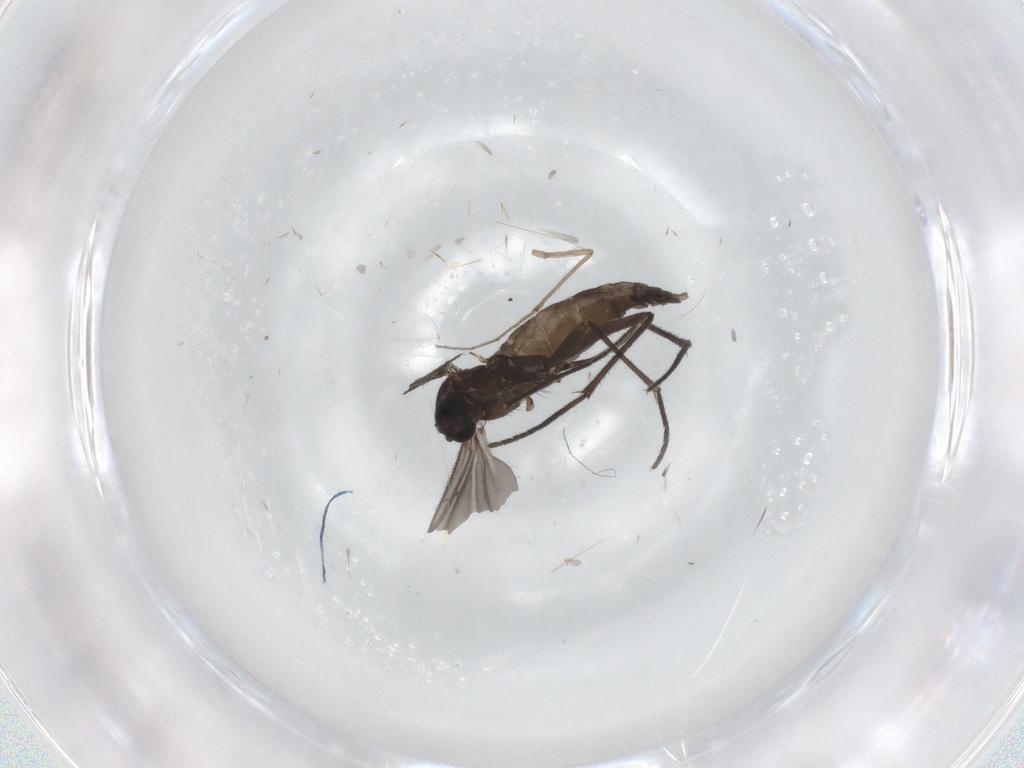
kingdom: Animalia
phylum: Arthropoda
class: Insecta
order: Diptera
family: Sciaridae
